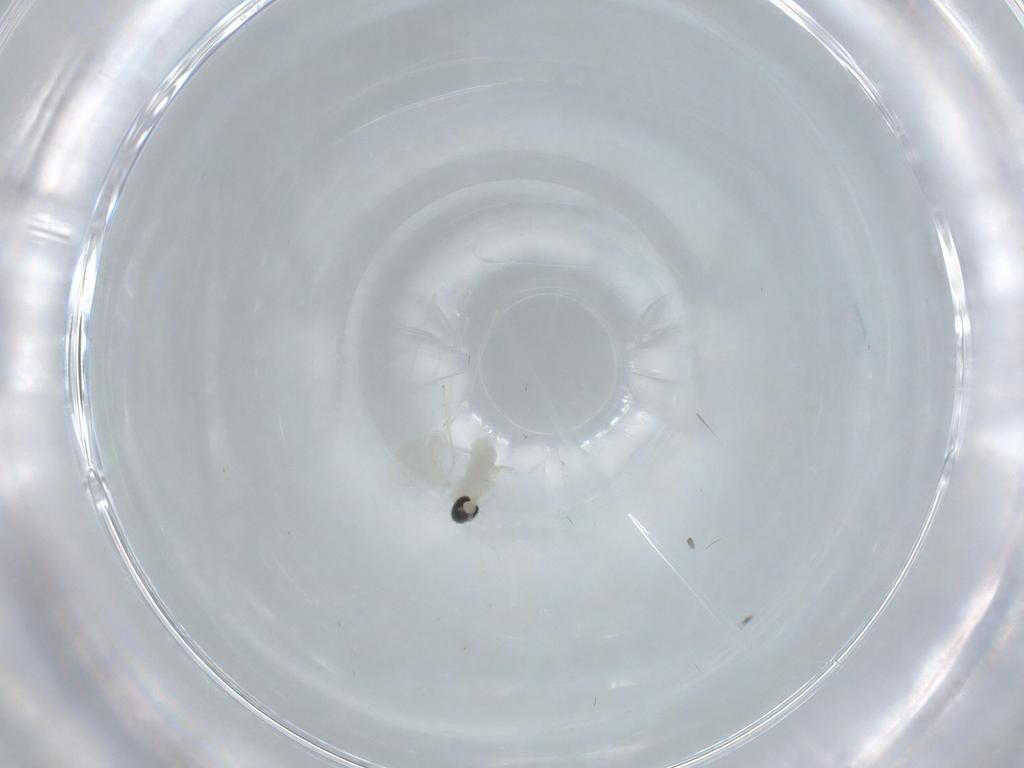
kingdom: Animalia
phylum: Arthropoda
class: Insecta
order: Diptera
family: Cecidomyiidae
